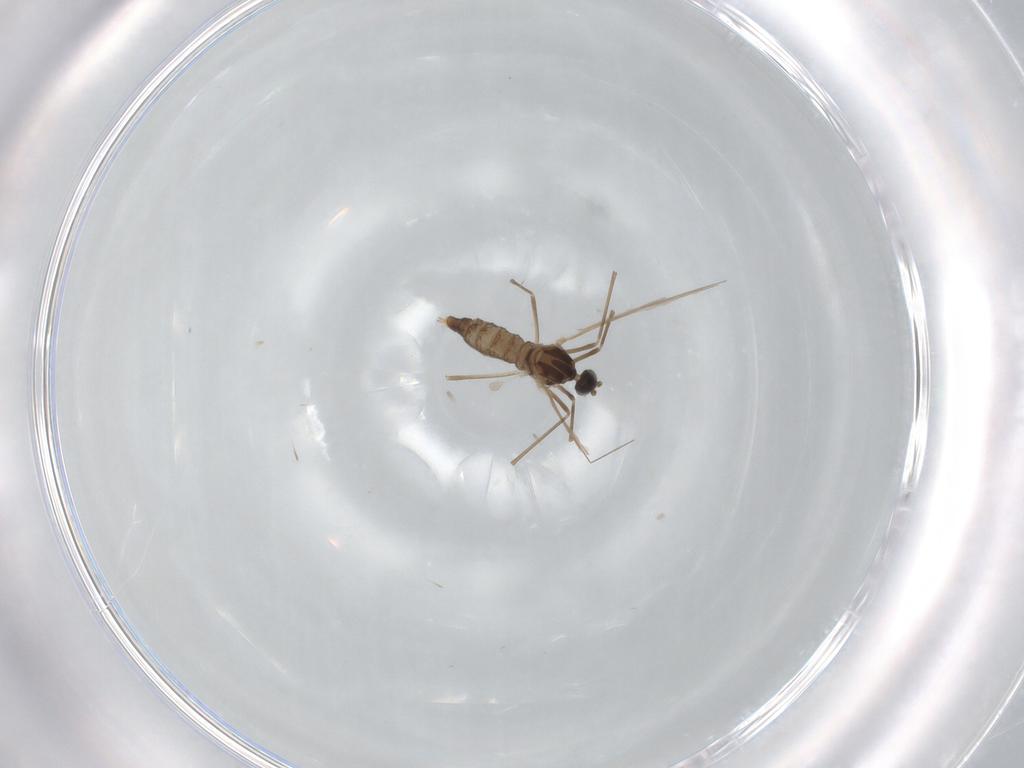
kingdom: Animalia
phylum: Arthropoda
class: Insecta
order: Diptera
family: Cecidomyiidae
